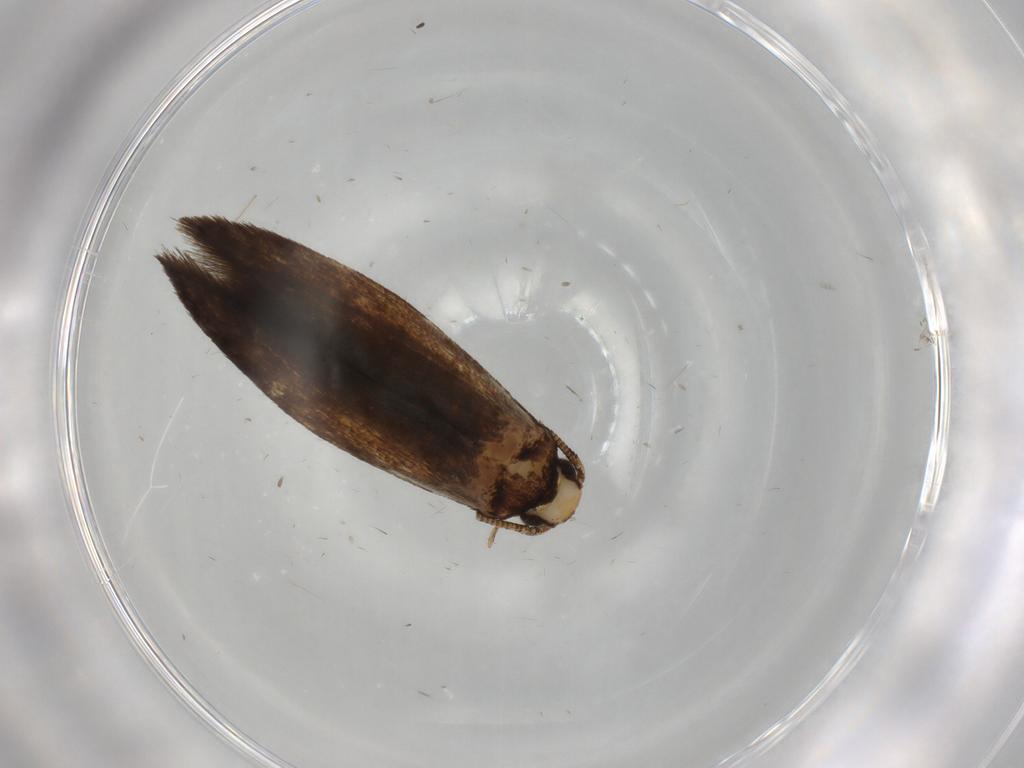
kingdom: Animalia
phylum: Arthropoda
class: Insecta
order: Lepidoptera
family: Tineidae
